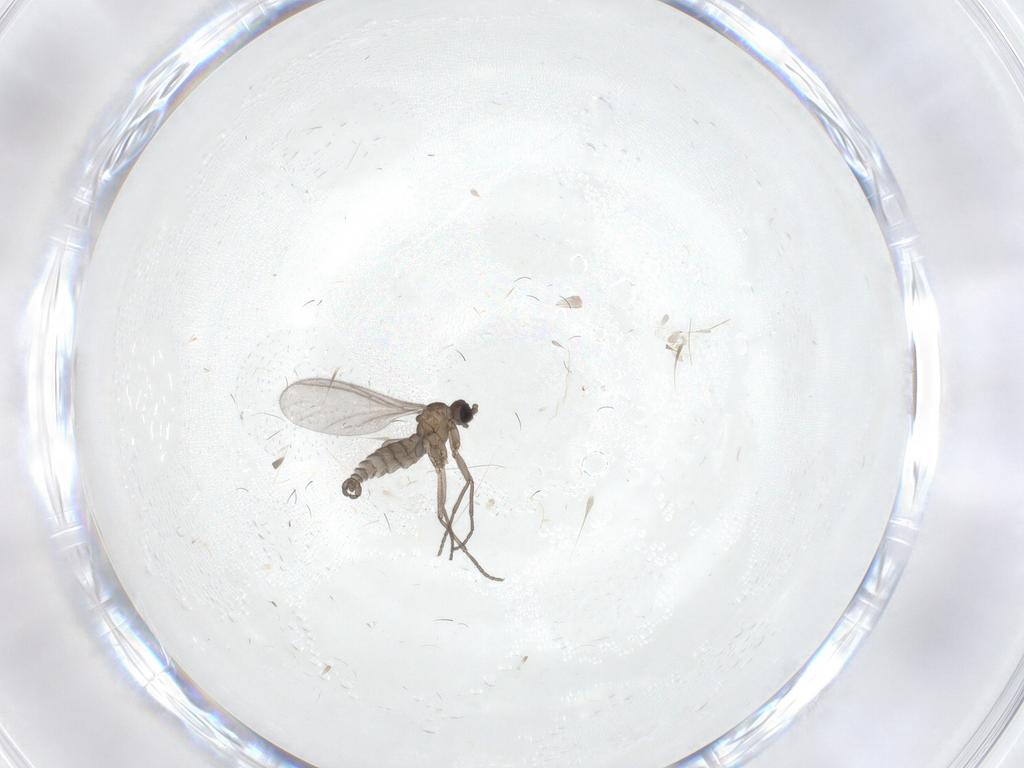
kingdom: Animalia
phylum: Arthropoda
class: Insecta
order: Diptera
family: Sciaridae
